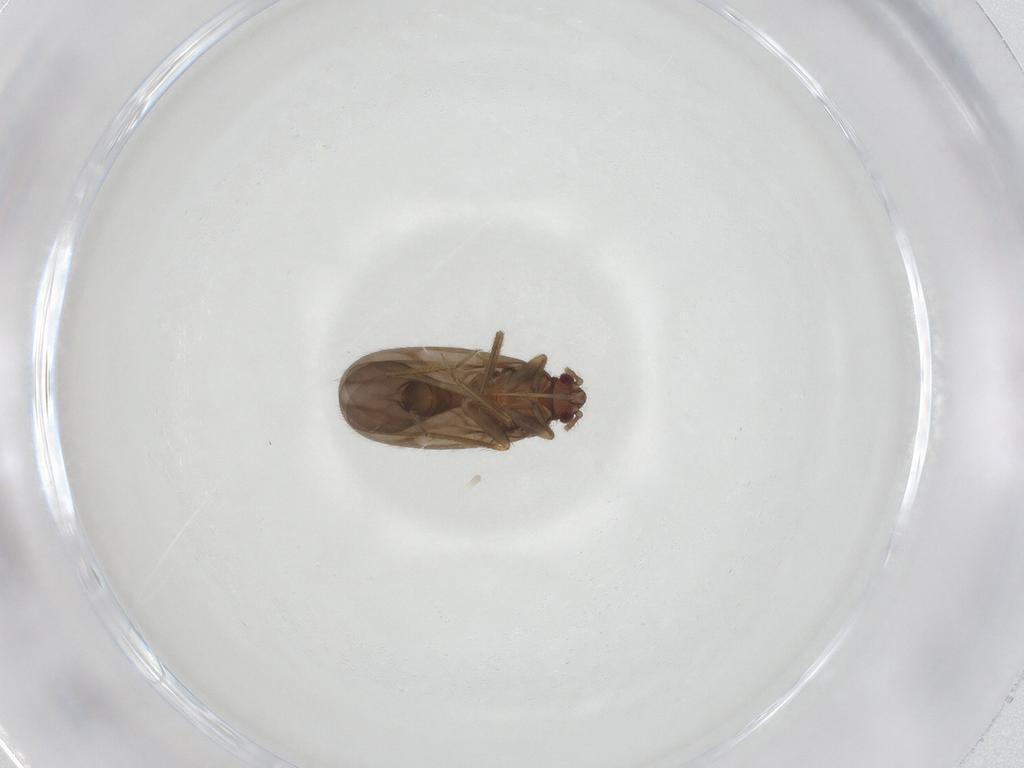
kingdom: Animalia
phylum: Arthropoda
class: Insecta
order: Hemiptera
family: Ceratocombidae
